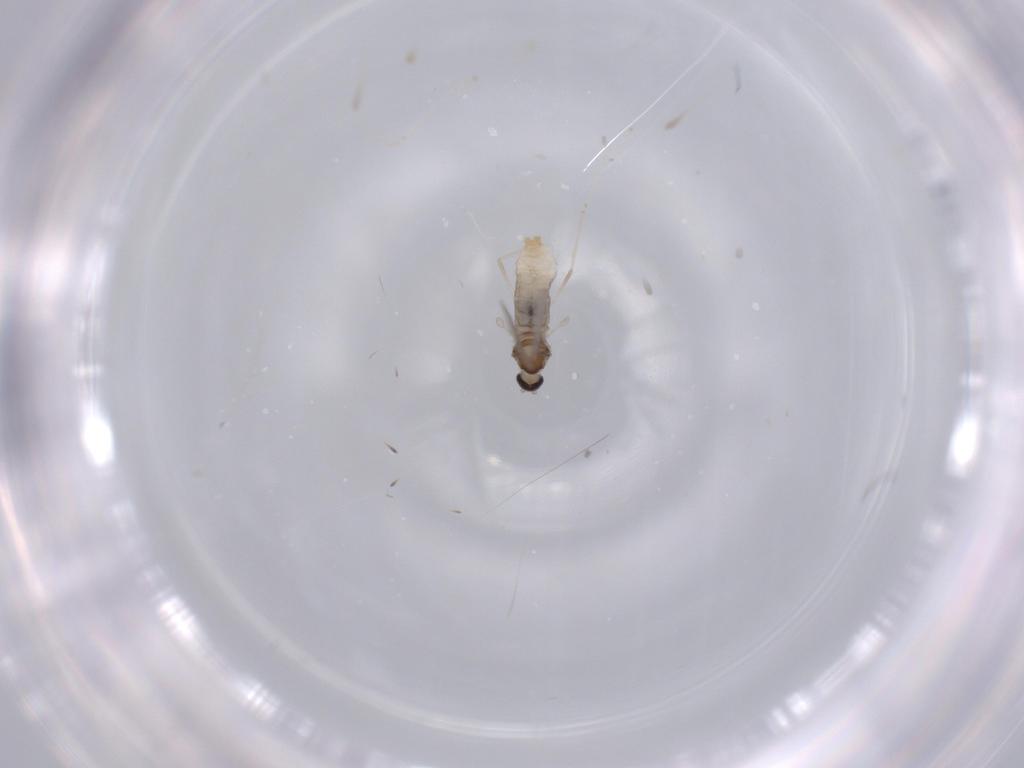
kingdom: Animalia
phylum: Arthropoda
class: Insecta
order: Diptera
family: Cecidomyiidae
